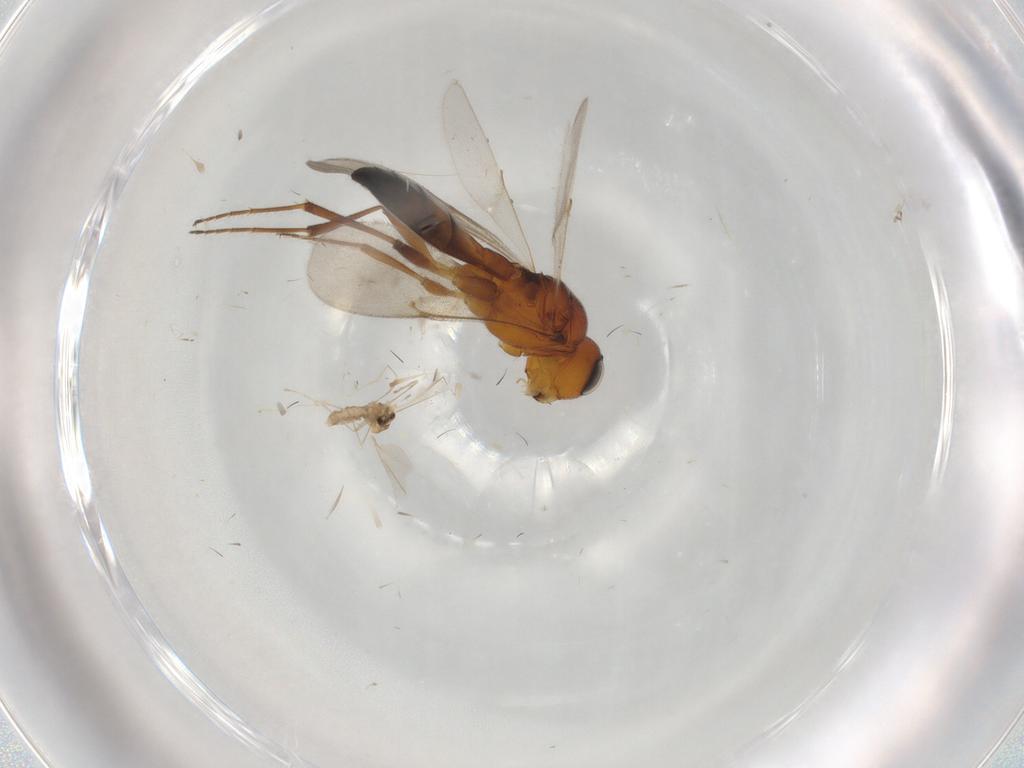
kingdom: Animalia
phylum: Arthropoda
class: Insecta
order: Diptera
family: Cecidomyiidae
